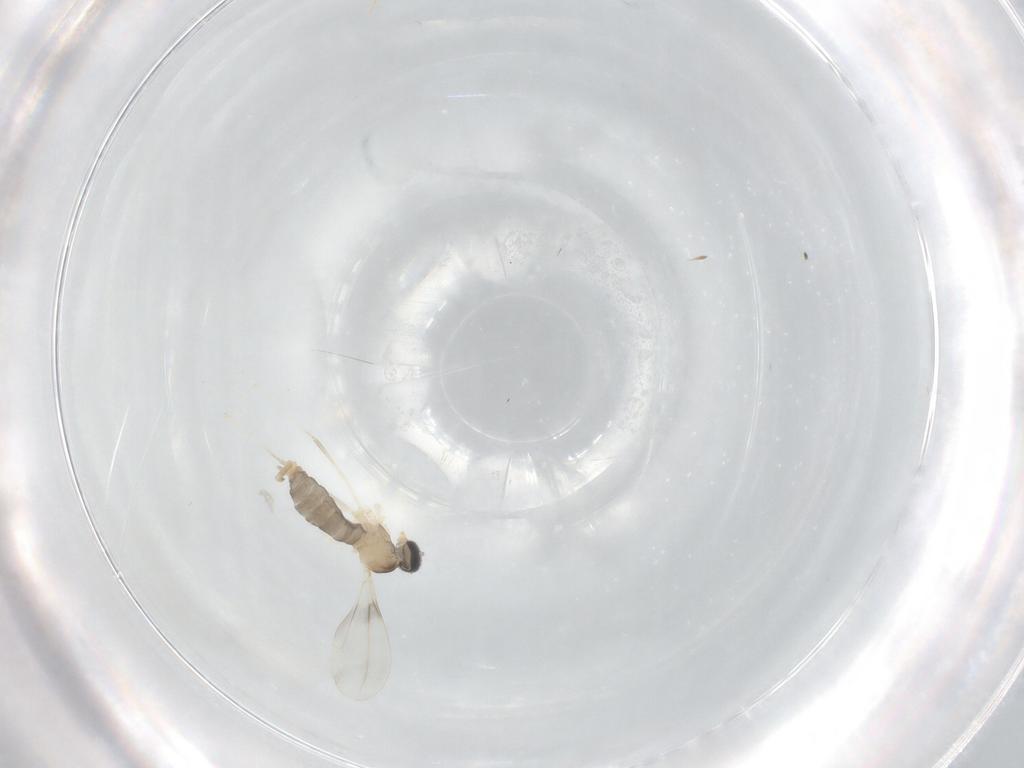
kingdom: Animalia
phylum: Arthropoda
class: Insecta
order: Diptera
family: Cecidomyiidae
